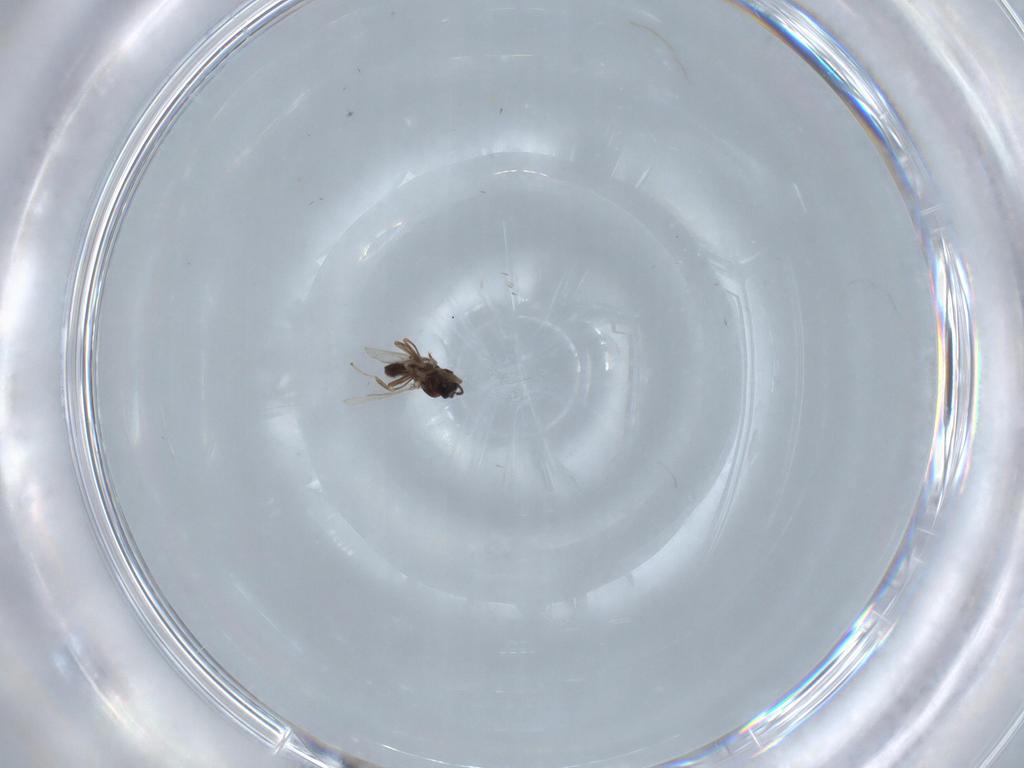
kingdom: Animalia
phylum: Arthropoda
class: Insecta
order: Diptera
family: Ceratopogonidae
